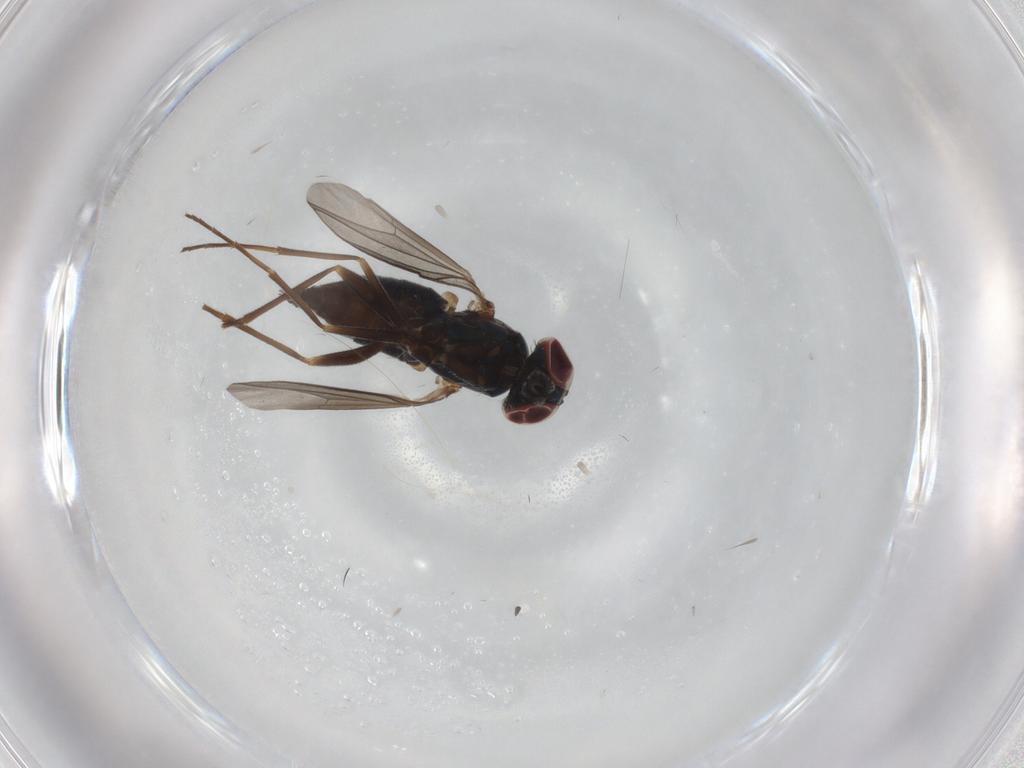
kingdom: Animalia
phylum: Arthropoda
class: Insecta
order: Diptera
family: Dolichopodidae
